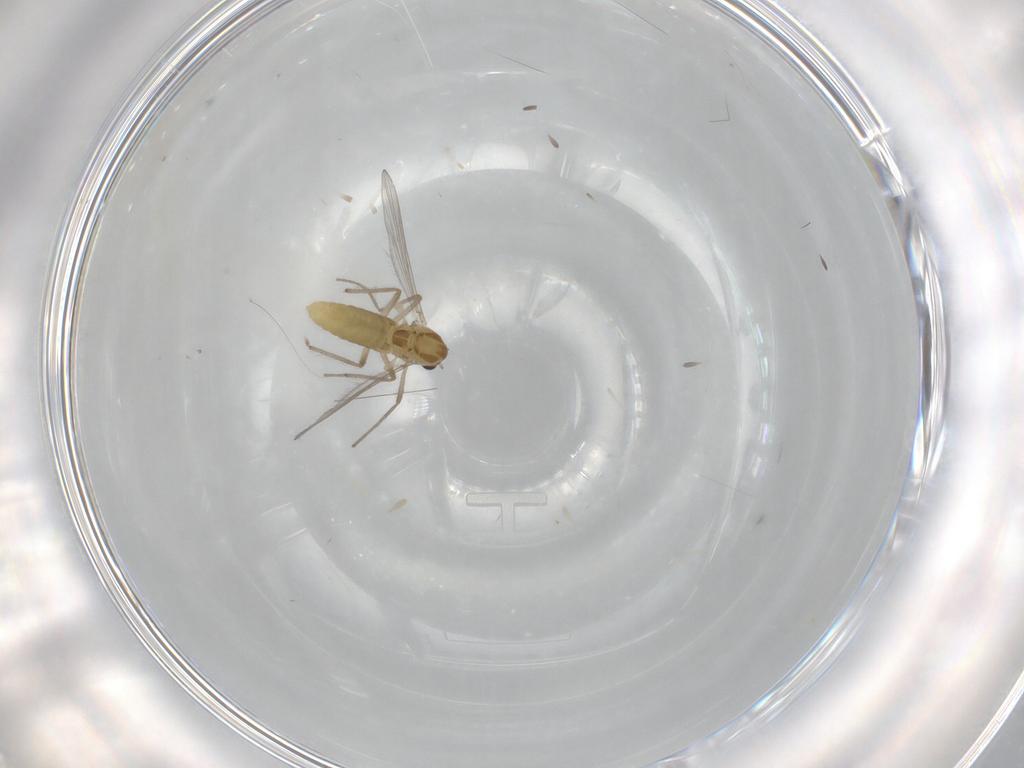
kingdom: Animalia
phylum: Arthropoda
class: Insecta
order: Diptera
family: Chironomidae
